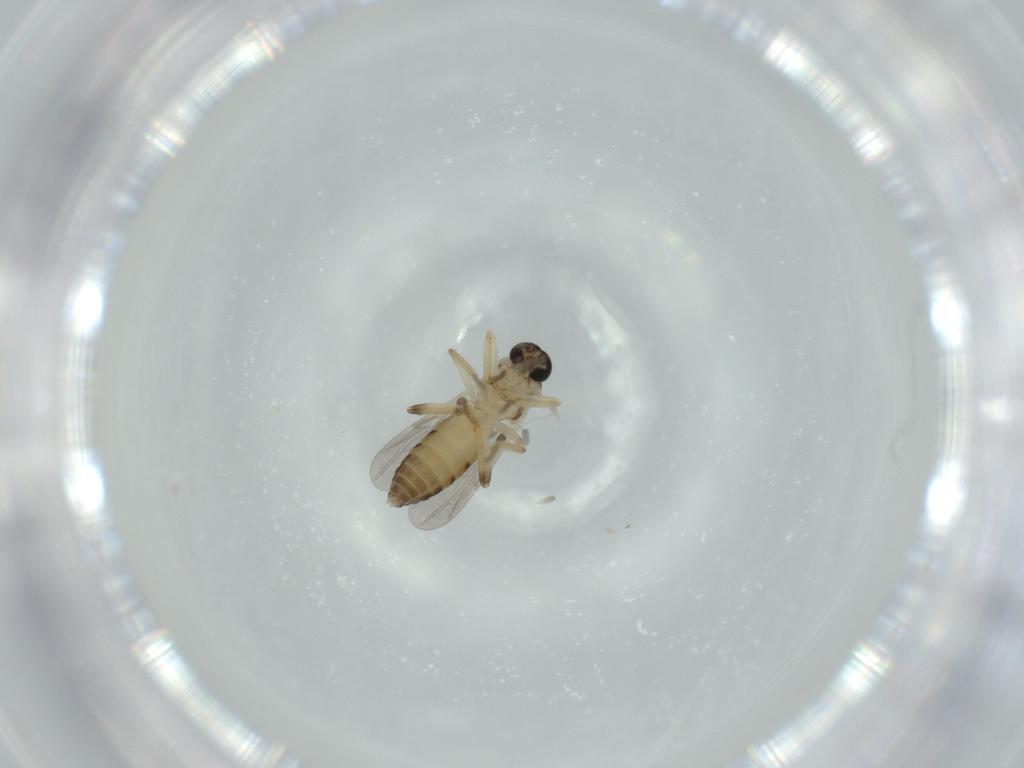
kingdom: Animalia
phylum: Arthropoda
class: Insecta
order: Diptera
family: Ceratopogonidae
